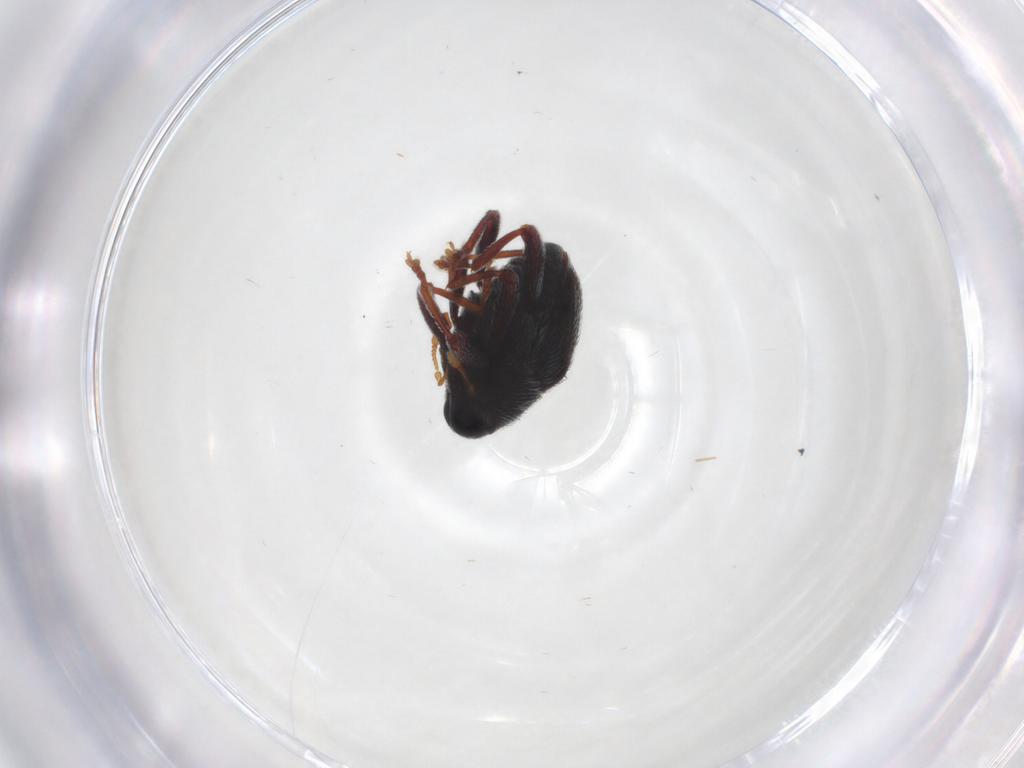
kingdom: Animalia
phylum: Arthropoda
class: Insecta
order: Coleoptera
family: Curculionidae
